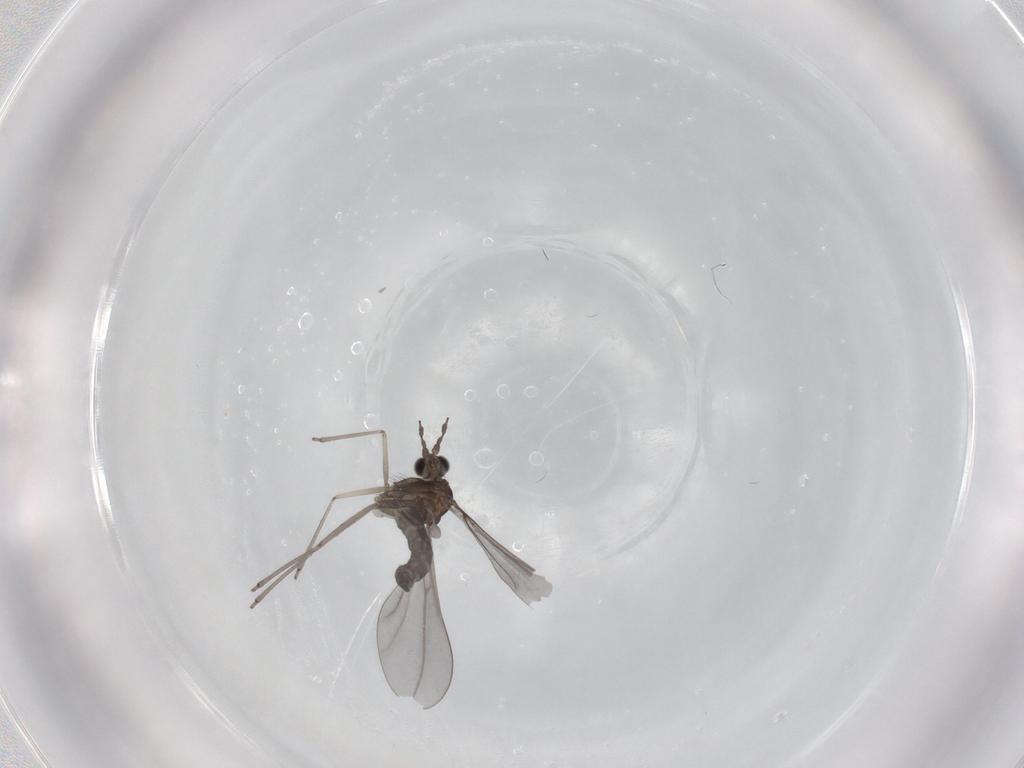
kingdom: Animalia
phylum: Arthropoda
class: Insecta
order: Diptera
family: Cecidomyiidae
